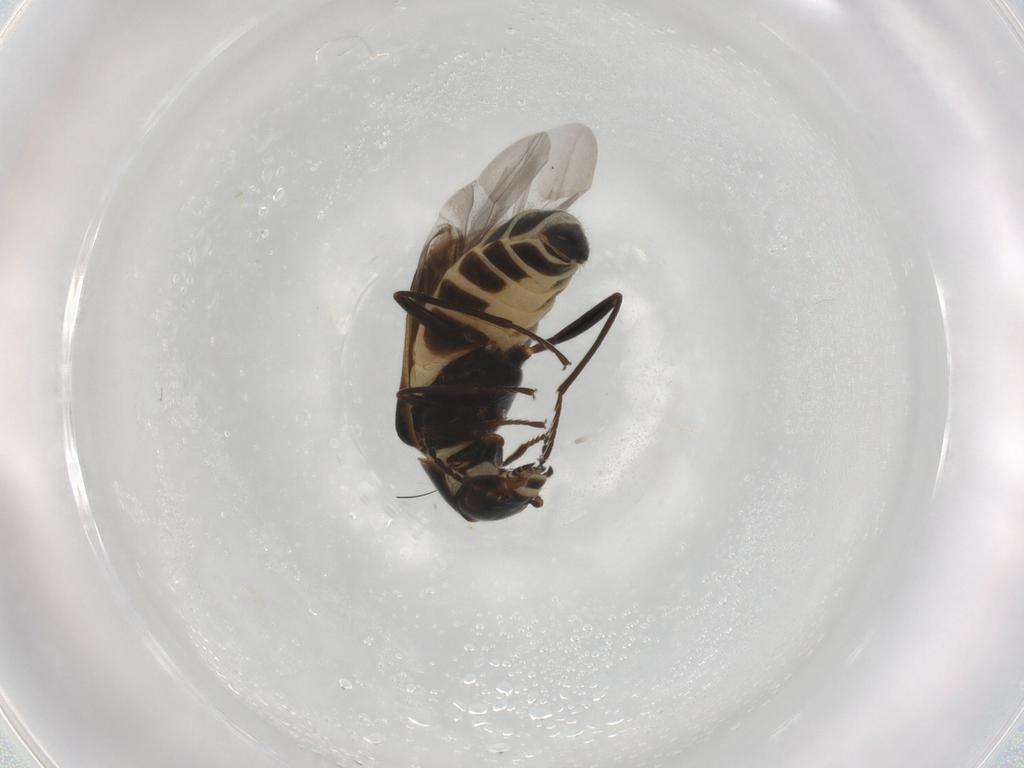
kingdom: Animalia
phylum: Arthropoda
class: Insecta
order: Coleoptera
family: Melyridae
